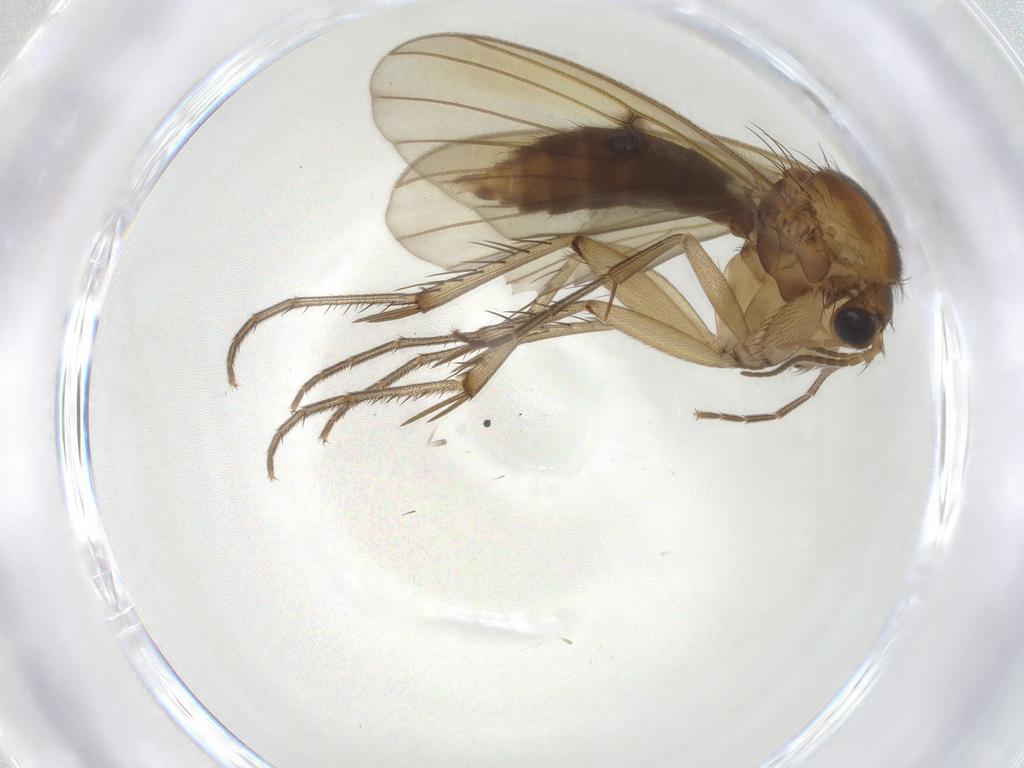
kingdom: Animalia
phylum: Arthropoda
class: Insecta
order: Diptera
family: Mycetophilidae
